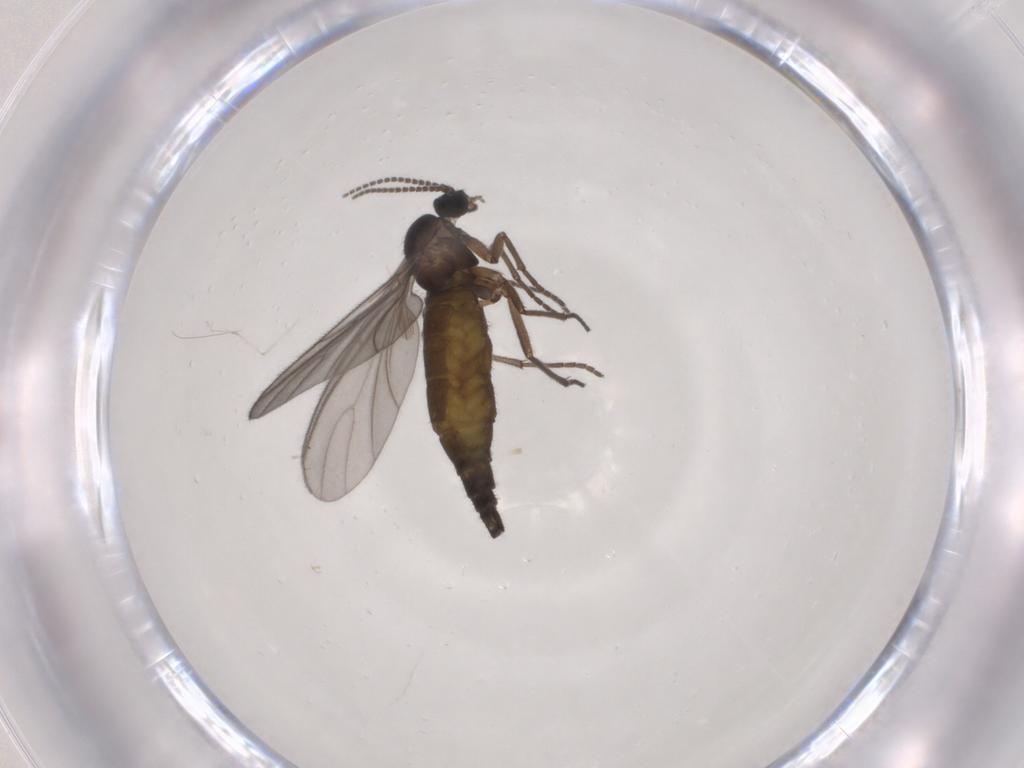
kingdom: Animalia
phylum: Arthropoda
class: Insecta
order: Diptera
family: Sciaridae
